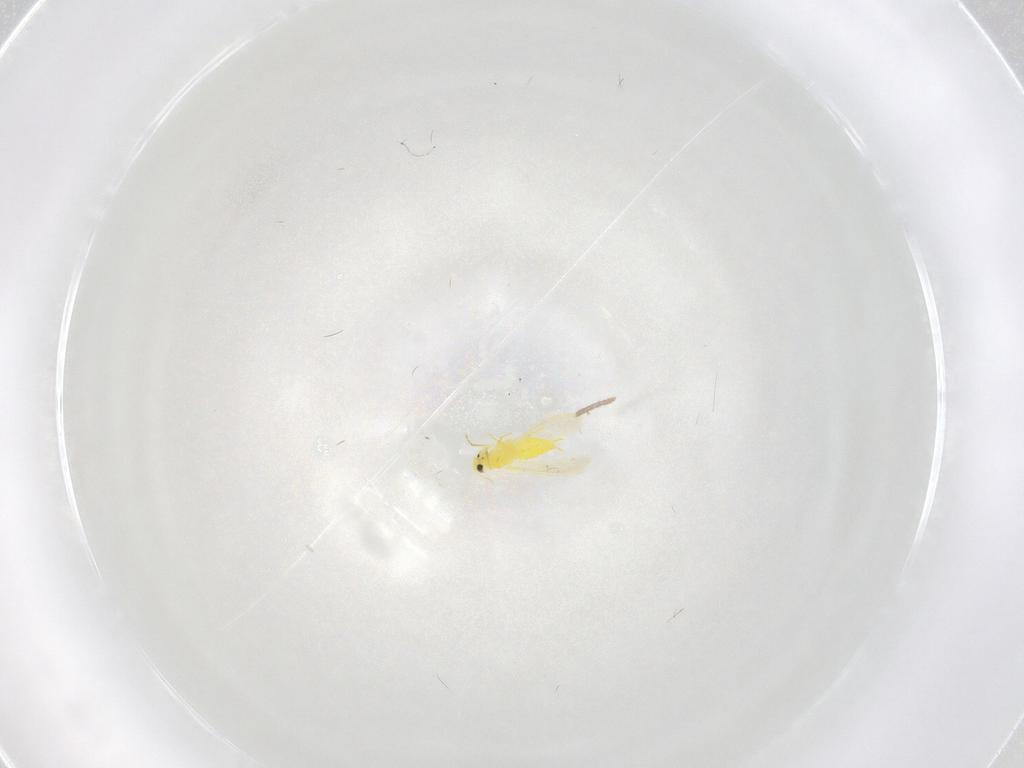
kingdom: Animalia
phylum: Arthropoda
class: Insecta
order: Trichoptera
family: Philopotamidae
